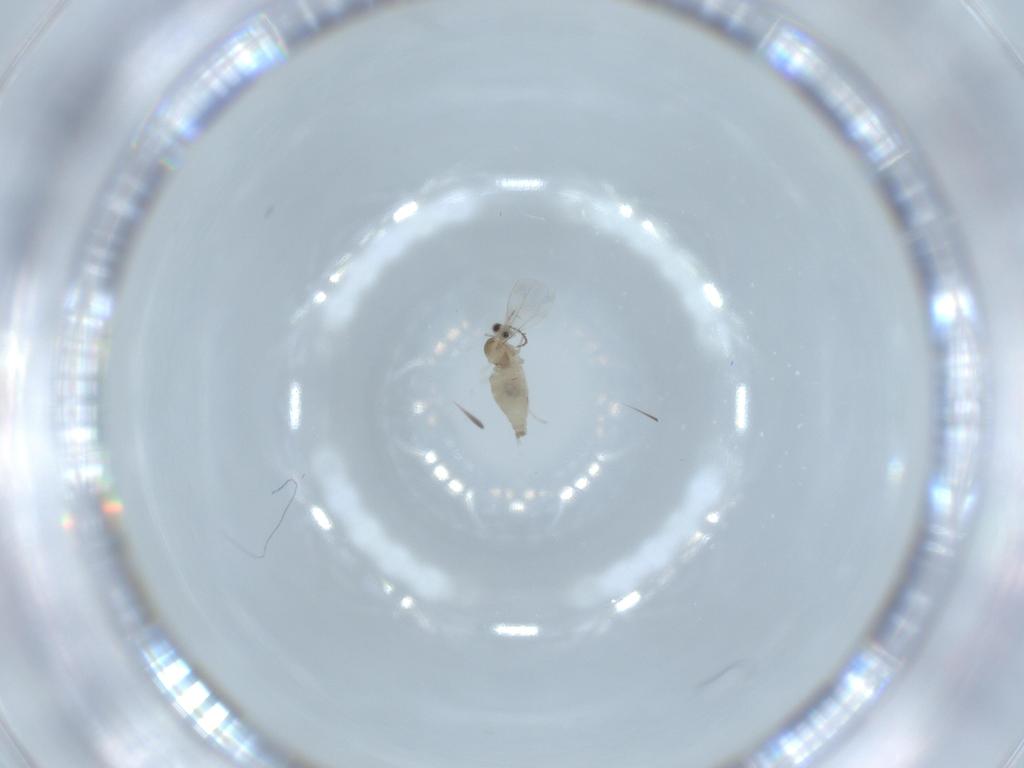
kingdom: Animalia
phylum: Arthropoda
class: Insecta
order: Diptera
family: Cecidomyiidae
